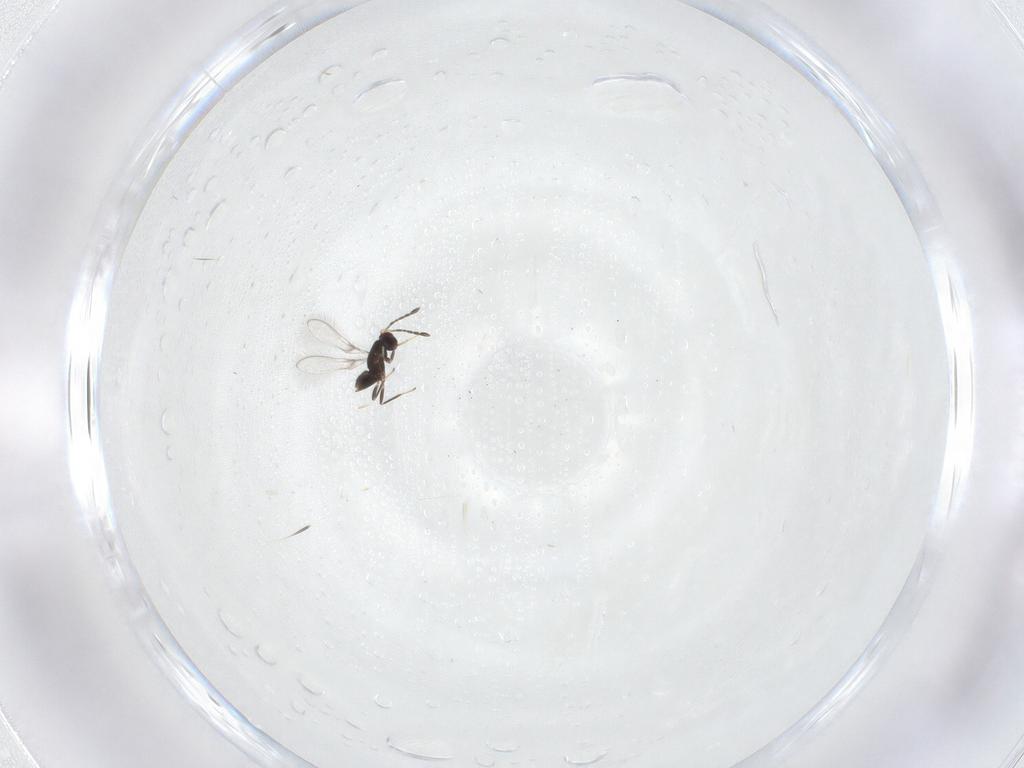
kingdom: Animalia
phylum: Arthropoda
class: Insecta
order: Hymenoptera
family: Mymaridae
